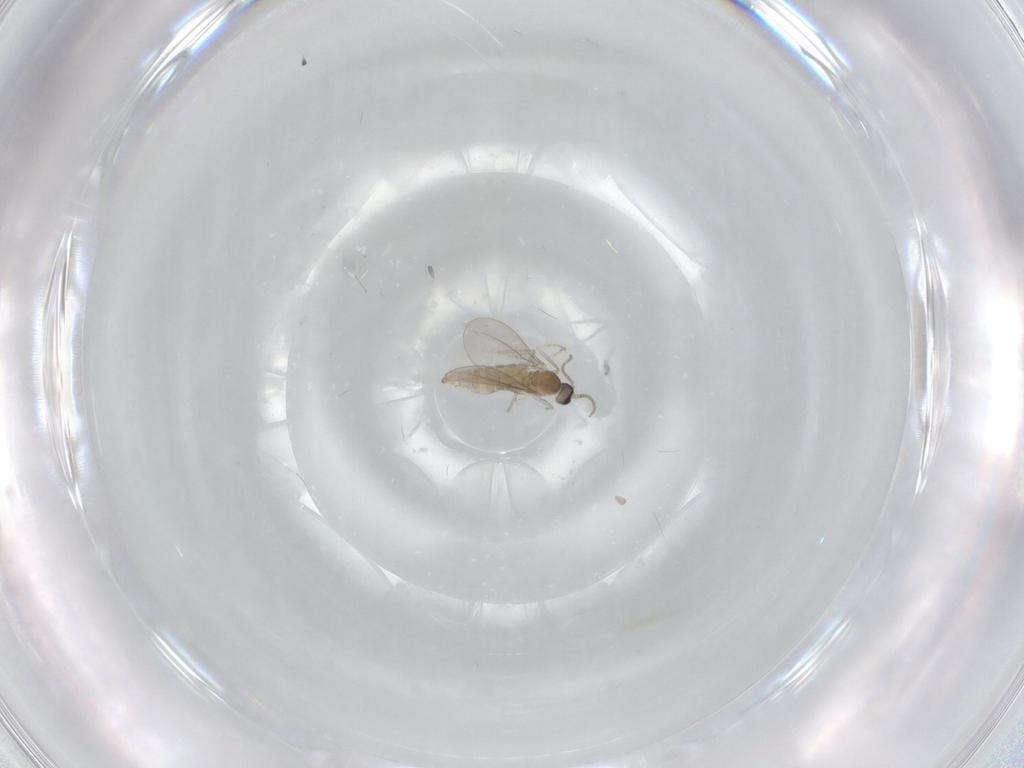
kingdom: Animalia
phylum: Arthropoda
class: Insecta
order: Diptera
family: Cecidomyiidae
